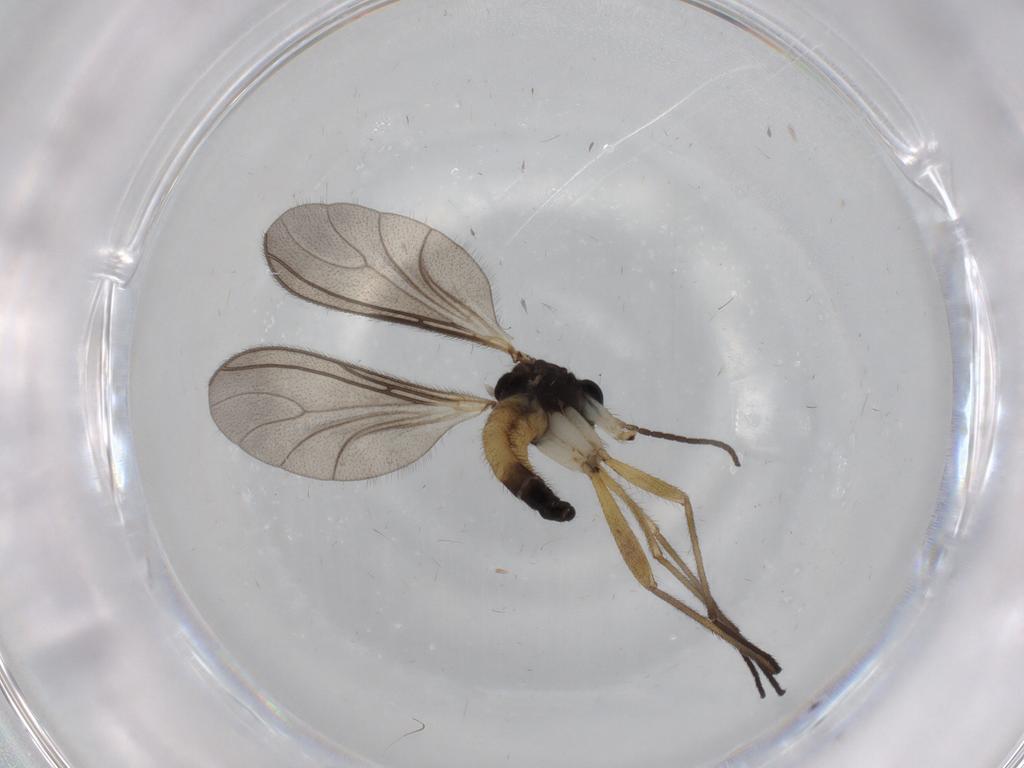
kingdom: Animalia
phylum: Arthropoda
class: Insecta
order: Diptera
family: Sciaridae
